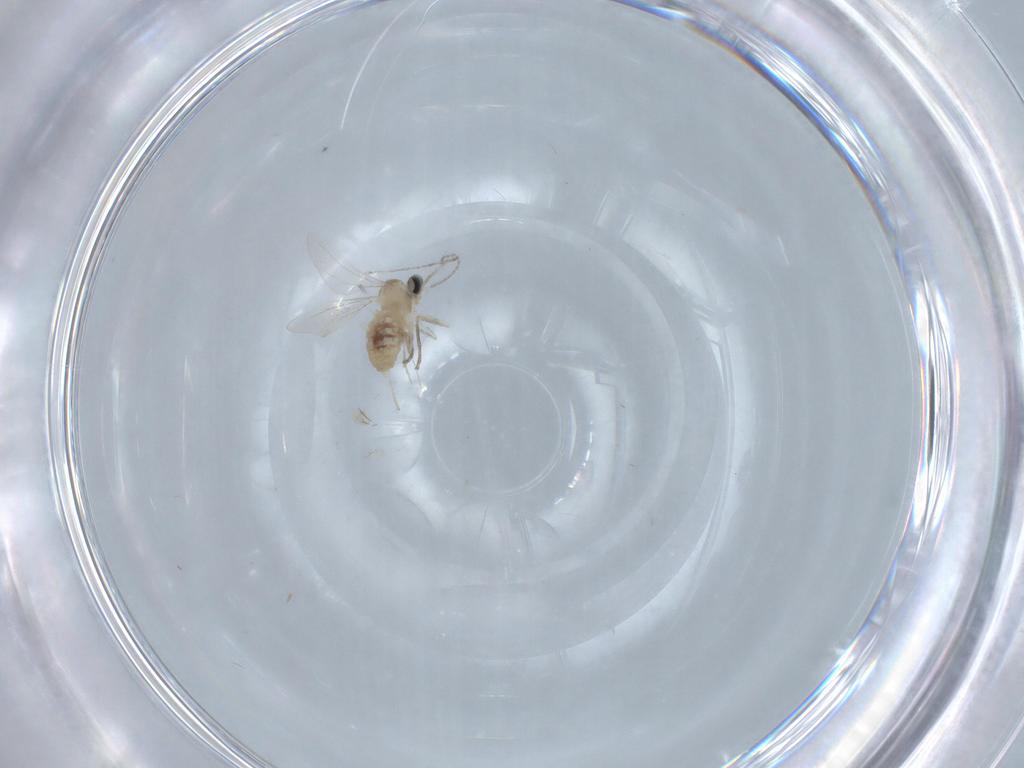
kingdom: Animalia
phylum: Arthropoda
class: Insecta
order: Diptera
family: Cecidomyiidae
